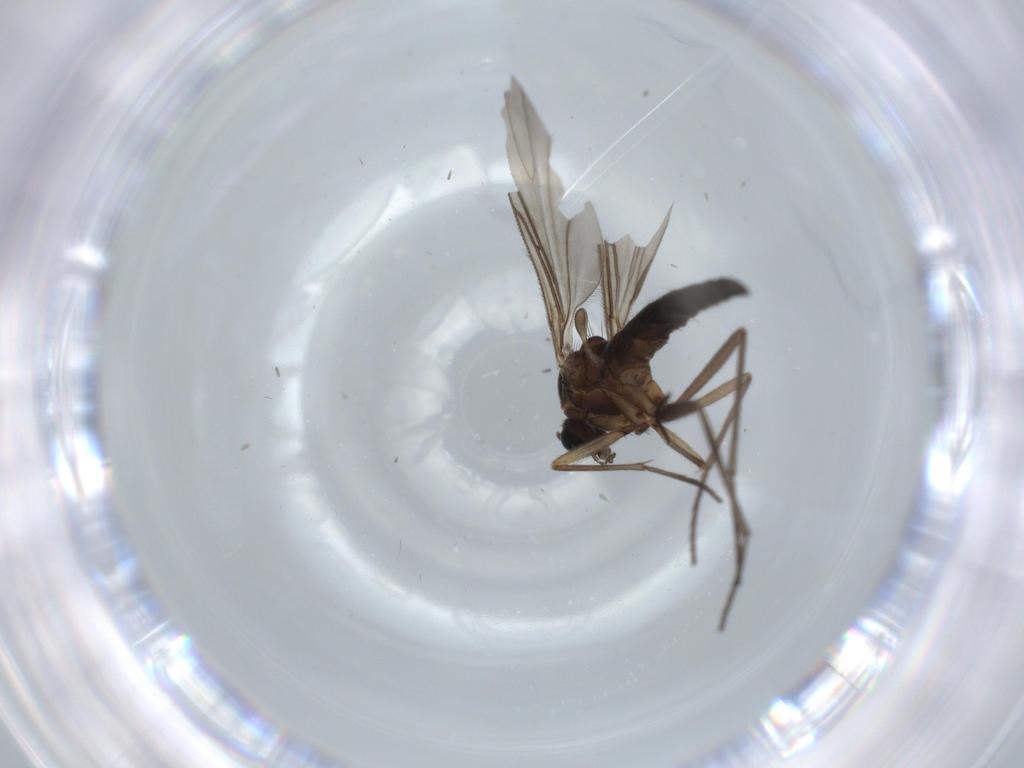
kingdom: Animalia
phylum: Arthropoda
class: Insecta
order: Diptera
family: Sciaridae
